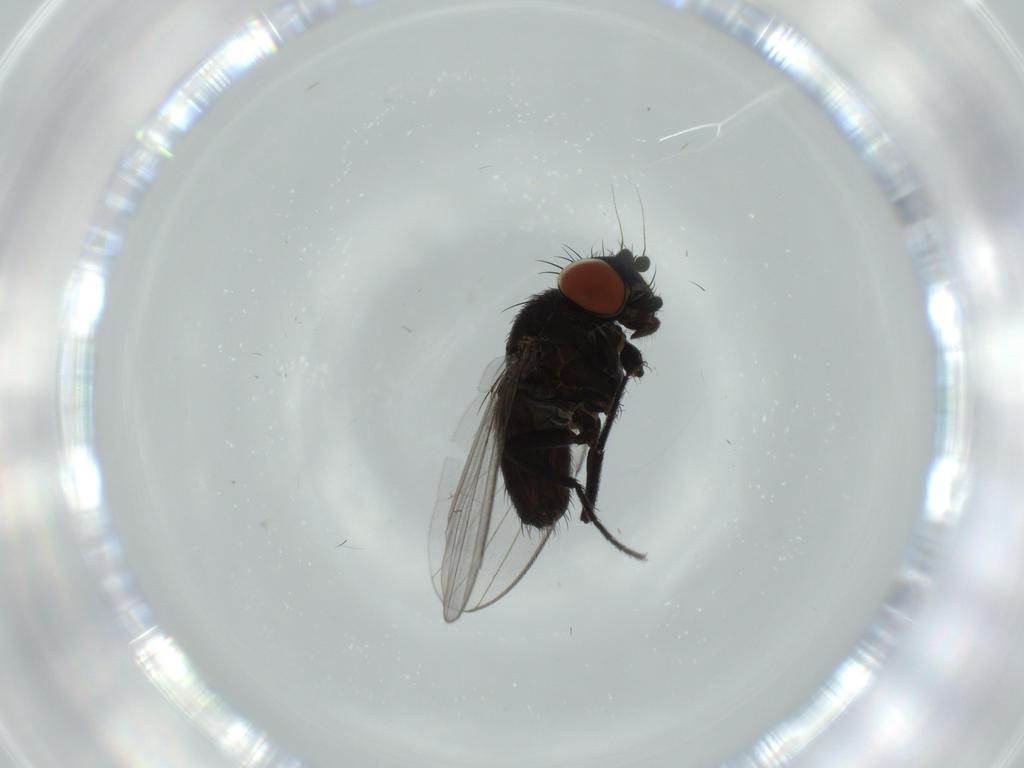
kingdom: Animalia
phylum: Arthropoda
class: Insecta
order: Diptera
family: Milichiidae
